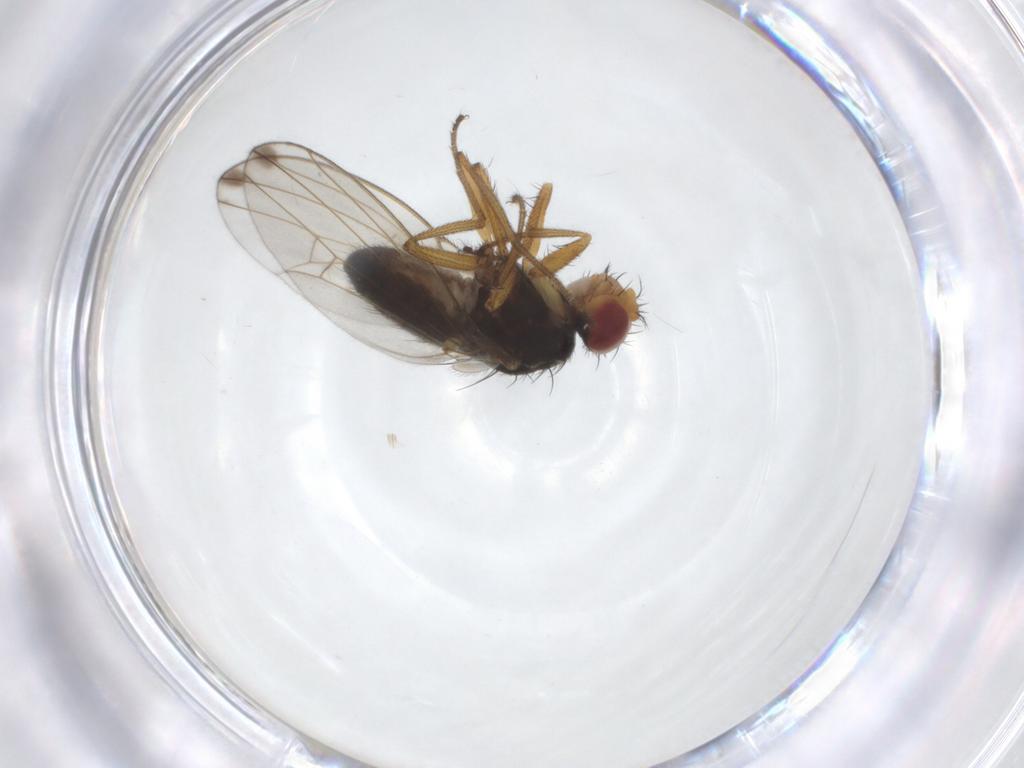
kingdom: Animalia
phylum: Arthropoda
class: Insecta
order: Diptera
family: Drosophilidae
